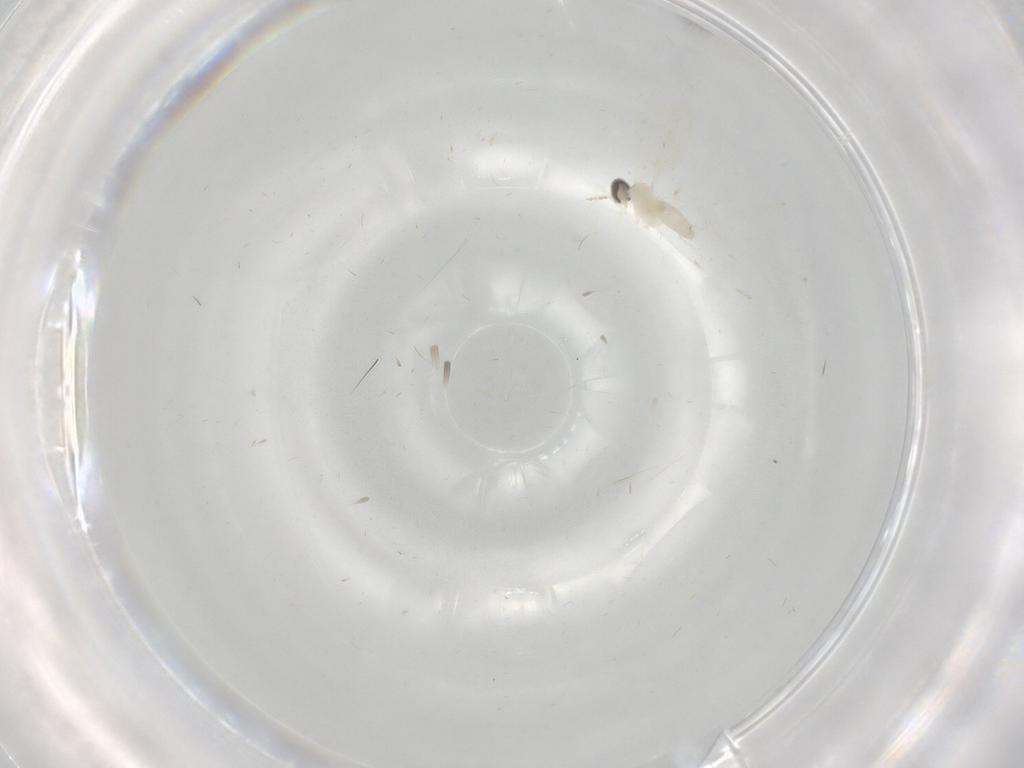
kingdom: Animalia
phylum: Arthropoda
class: Insecta
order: Diptera
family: Cecidomyiidae
